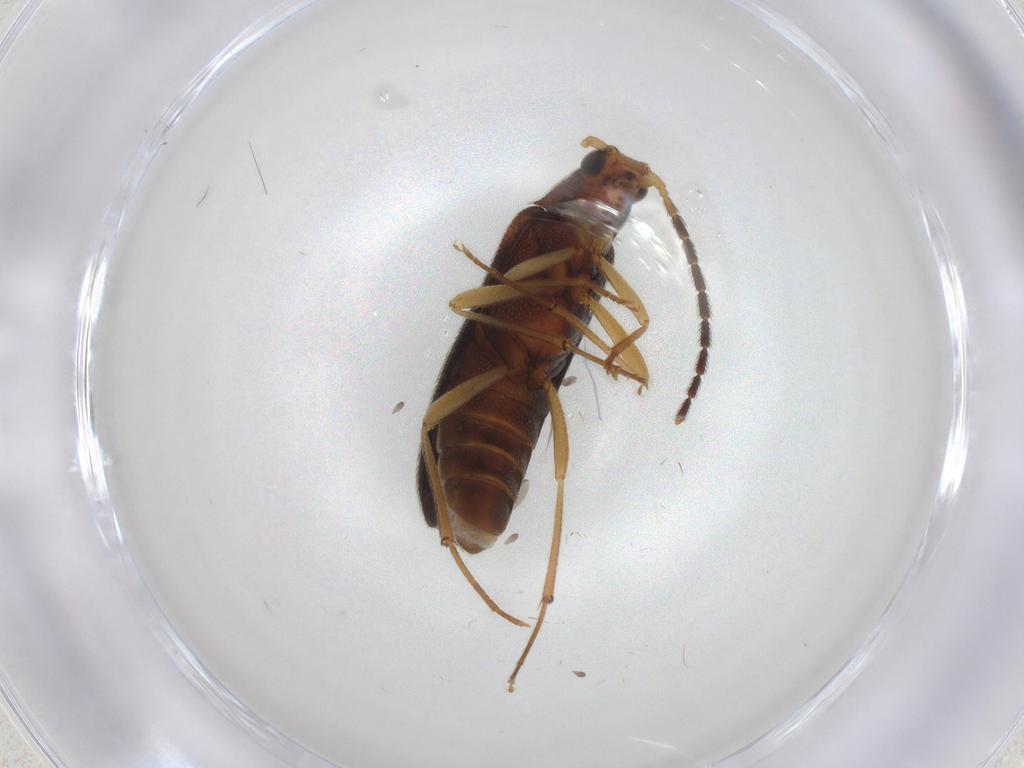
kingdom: Animalia
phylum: Arthropoda
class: Insecta
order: Coleoptera
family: Melandryidae
